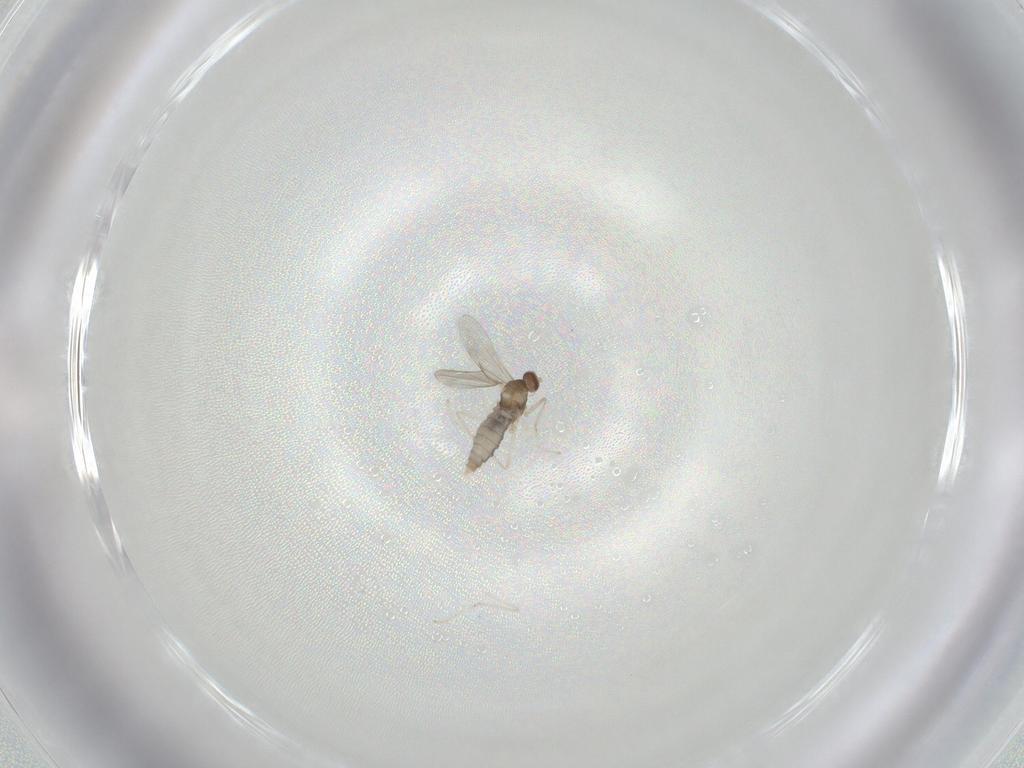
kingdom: Animalia
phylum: Arthropoda
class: Insecta
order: Diptera
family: Cecidomyiidae
